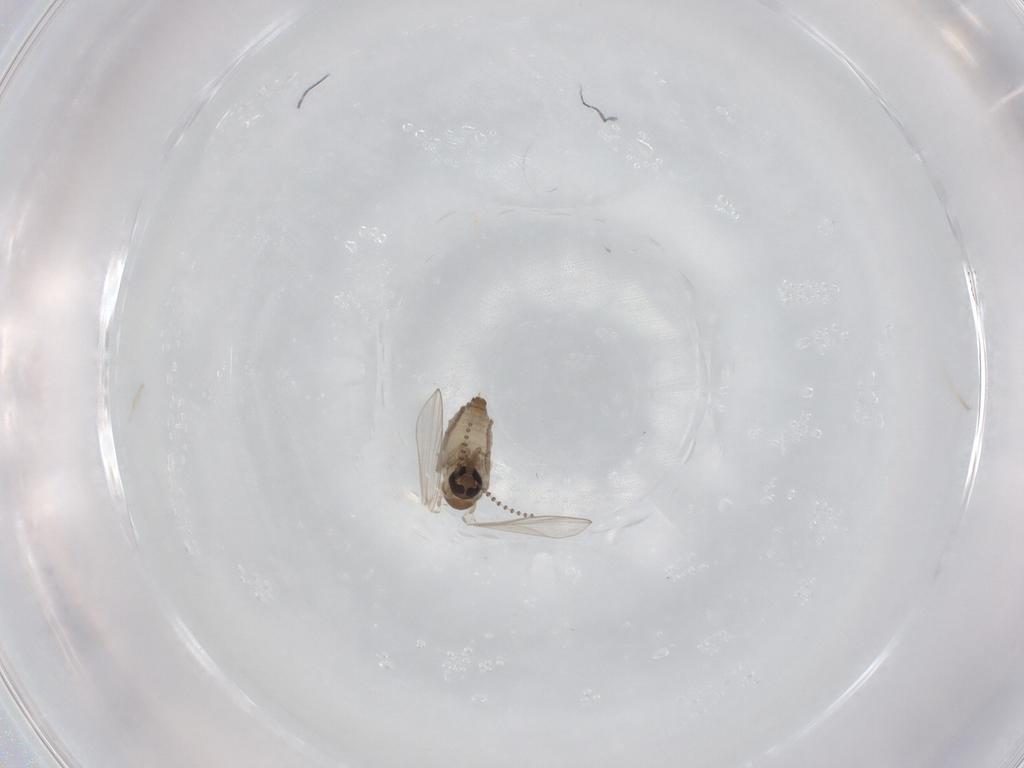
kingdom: Animalia
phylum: Arthropoda
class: Insecta
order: Diptera
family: Psychodidae
